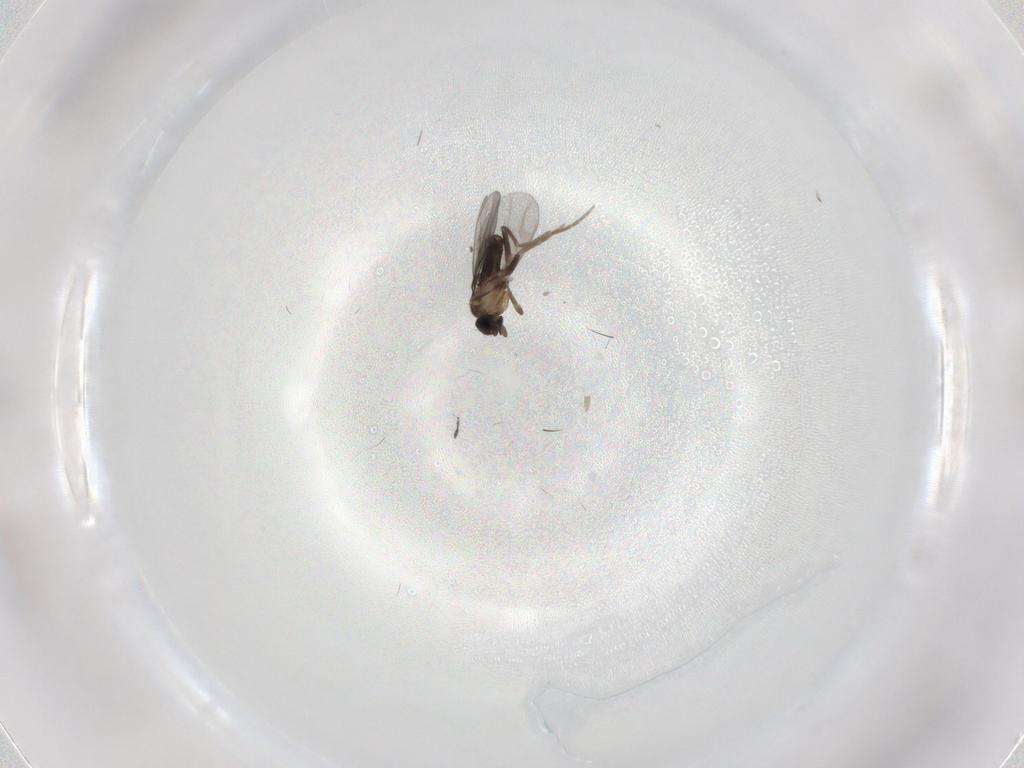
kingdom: Animalia
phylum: Arthropoda
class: Insecta
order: Diptera
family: Phoridae
